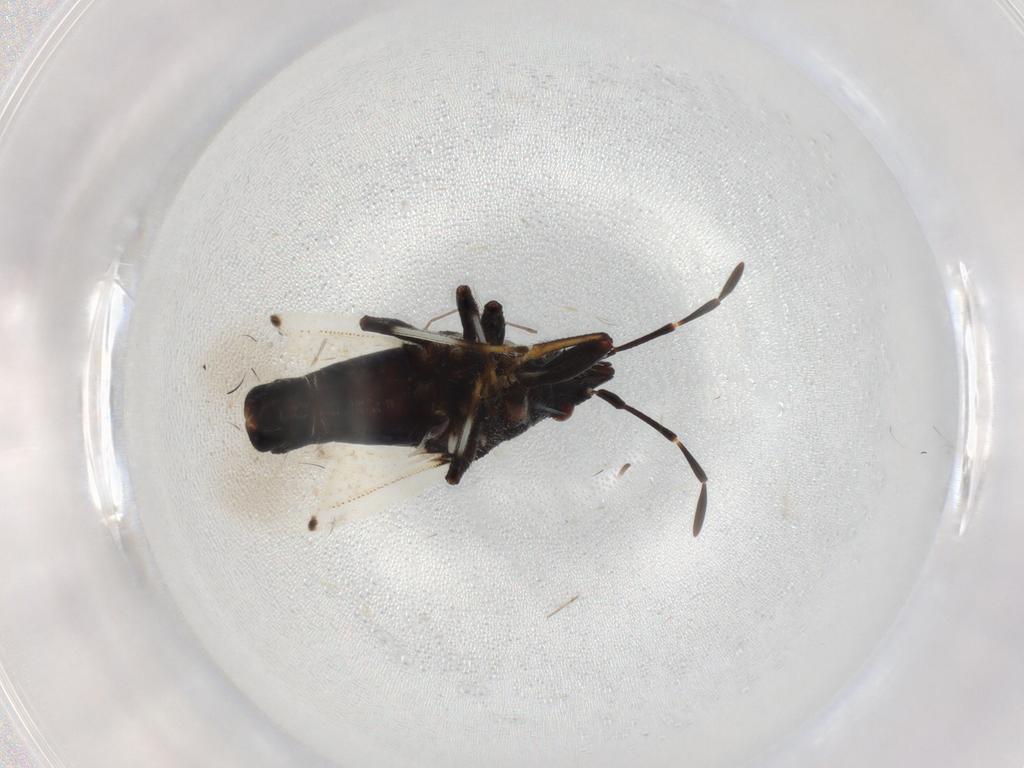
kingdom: Animalia
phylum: Arthropoda
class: Insecta
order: Hemiptera
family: Oxycarenidae
